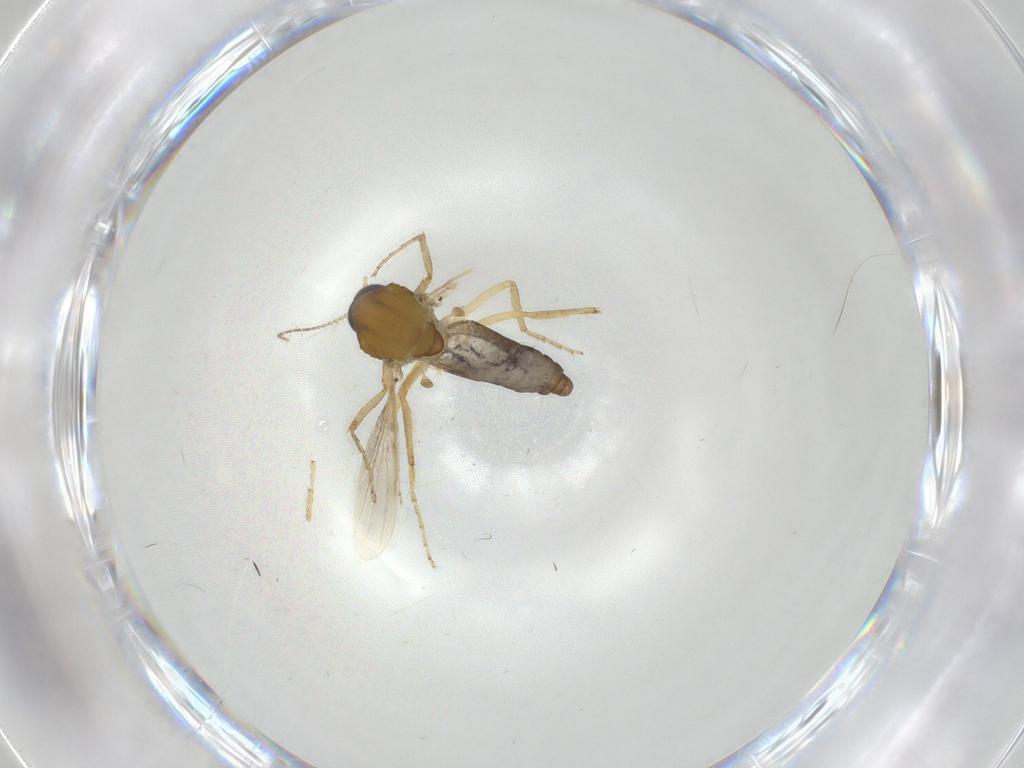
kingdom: Animalia
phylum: Arthropoda
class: Insecta
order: Diptera
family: Ceratopogonidae
